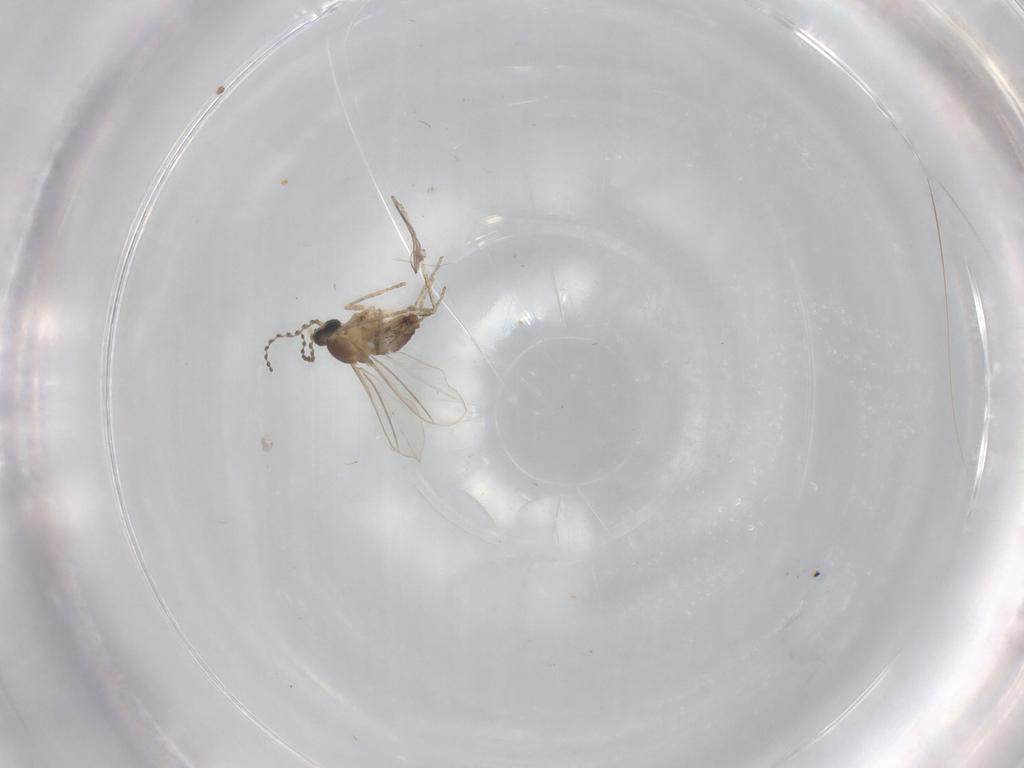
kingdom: Animalia
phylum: Arthropoda
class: Insecta
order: Diptera
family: Cecidomyiidae
